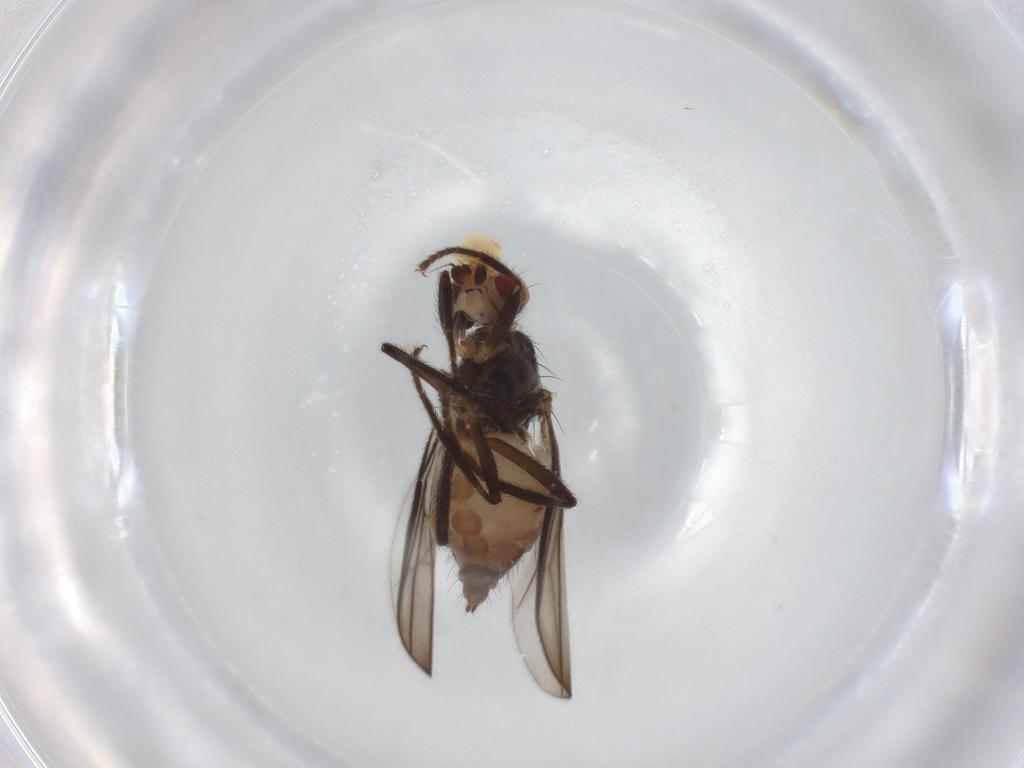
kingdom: Animalia
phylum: Arthropoda
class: Insecta
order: Diptera
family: Chloropidae
